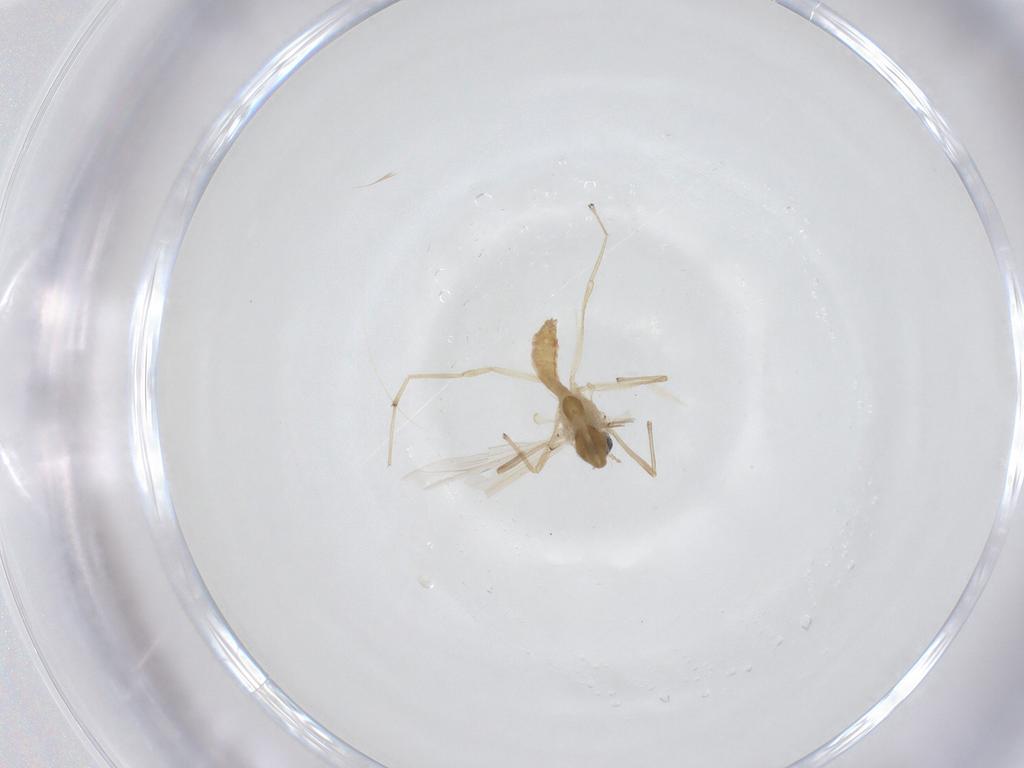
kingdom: Animalia
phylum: Arthropoda
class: Insecta
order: Diptera
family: Chironomidae
